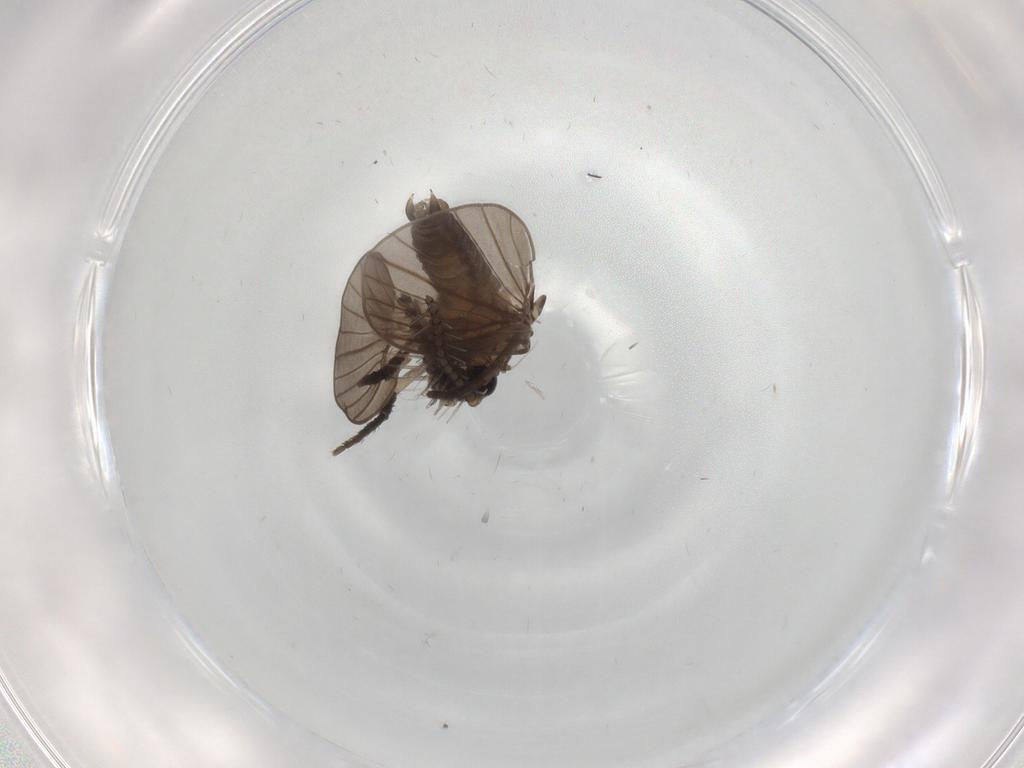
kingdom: Animalia
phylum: Arthropoda
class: Insecta
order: Diptera
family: Cecidomyiidae
